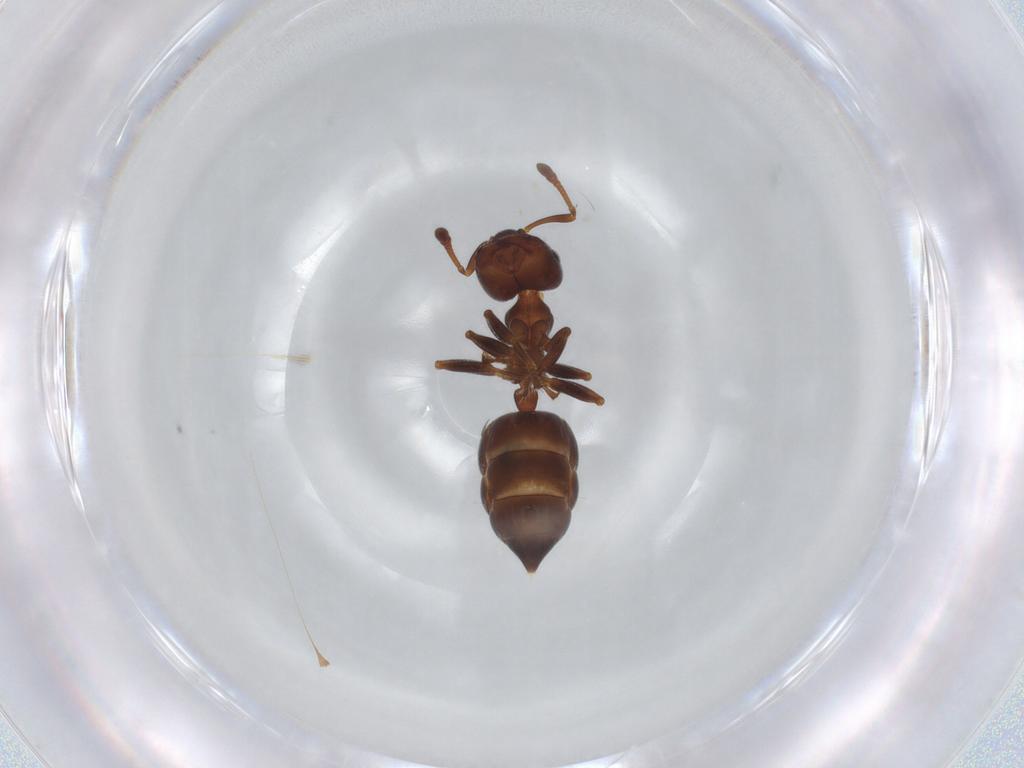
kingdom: Animalia
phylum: Arthropoda
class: Insecta
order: Hymenoptera
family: Formicidae
